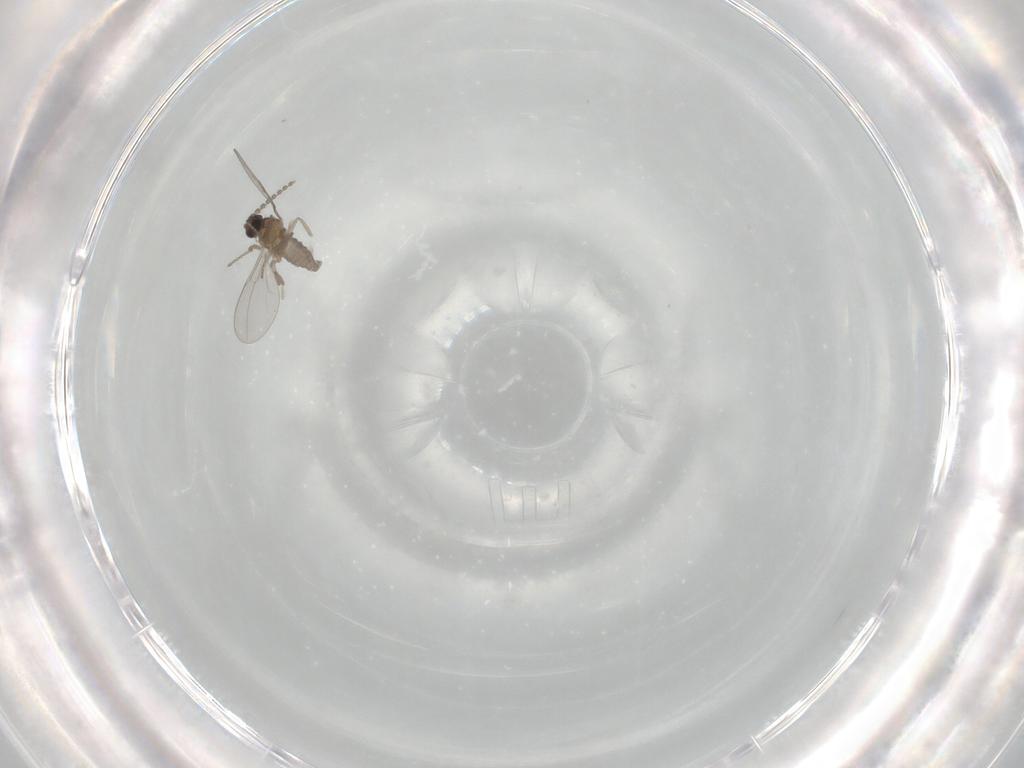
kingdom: Animalia
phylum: Arthropoda
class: Insecta
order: Diptera
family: Cecidomyiidae
